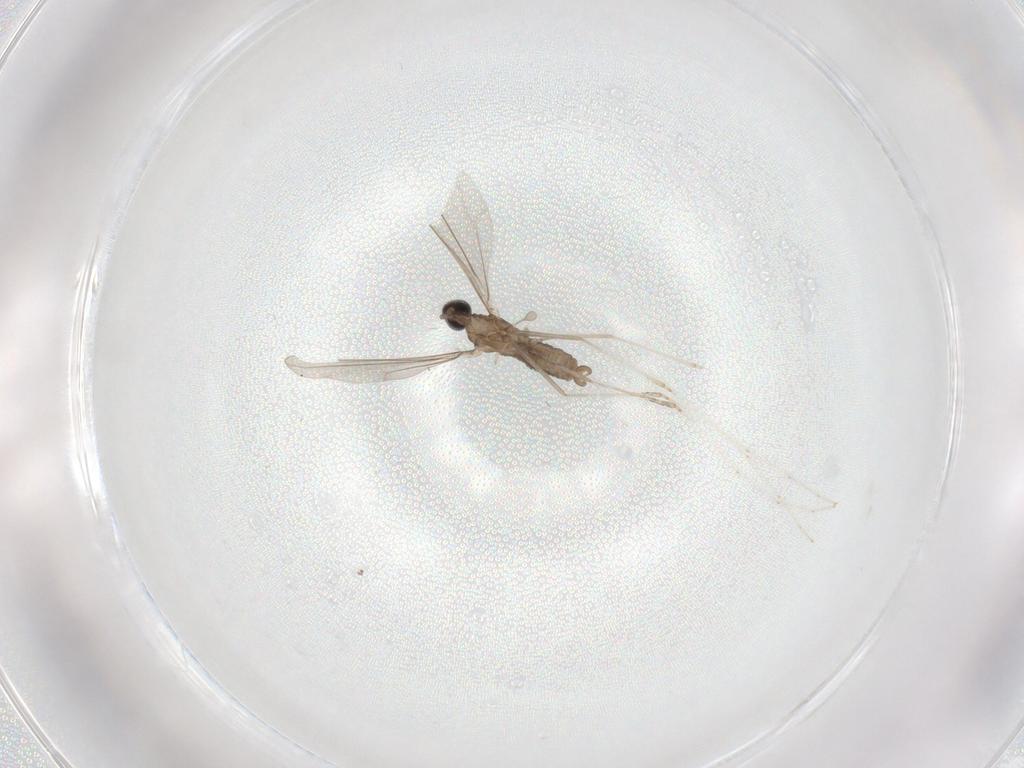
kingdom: Animalia
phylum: Arthropoda
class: Insecta
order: Diptera
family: Cecidomyiidae
